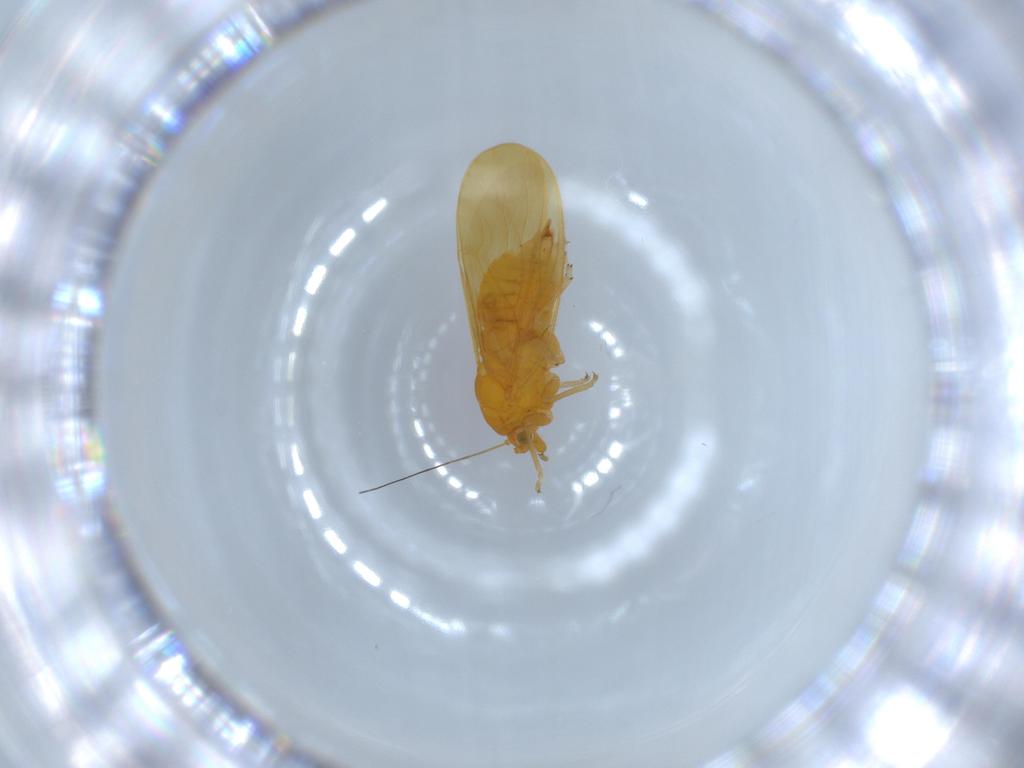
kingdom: Animalia
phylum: Arthropoda
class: Insecta
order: Hemiptera
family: Psyllidae
